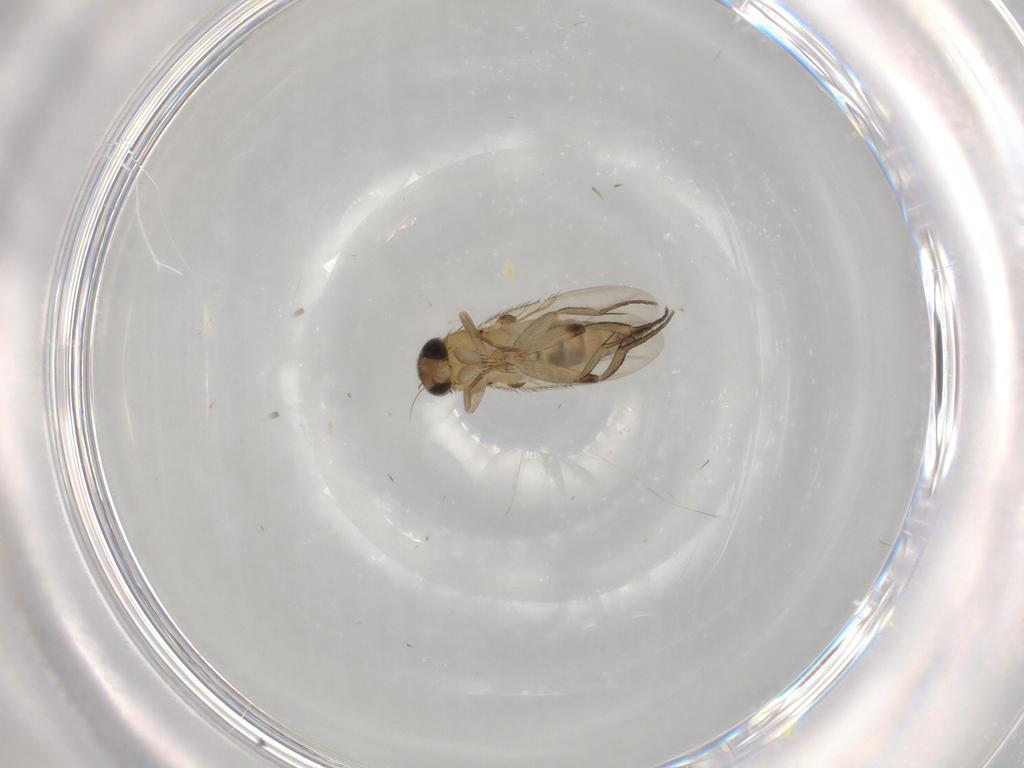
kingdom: Animalia
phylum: Arthropoda
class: Insecta
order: Diptera
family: Phoridae
